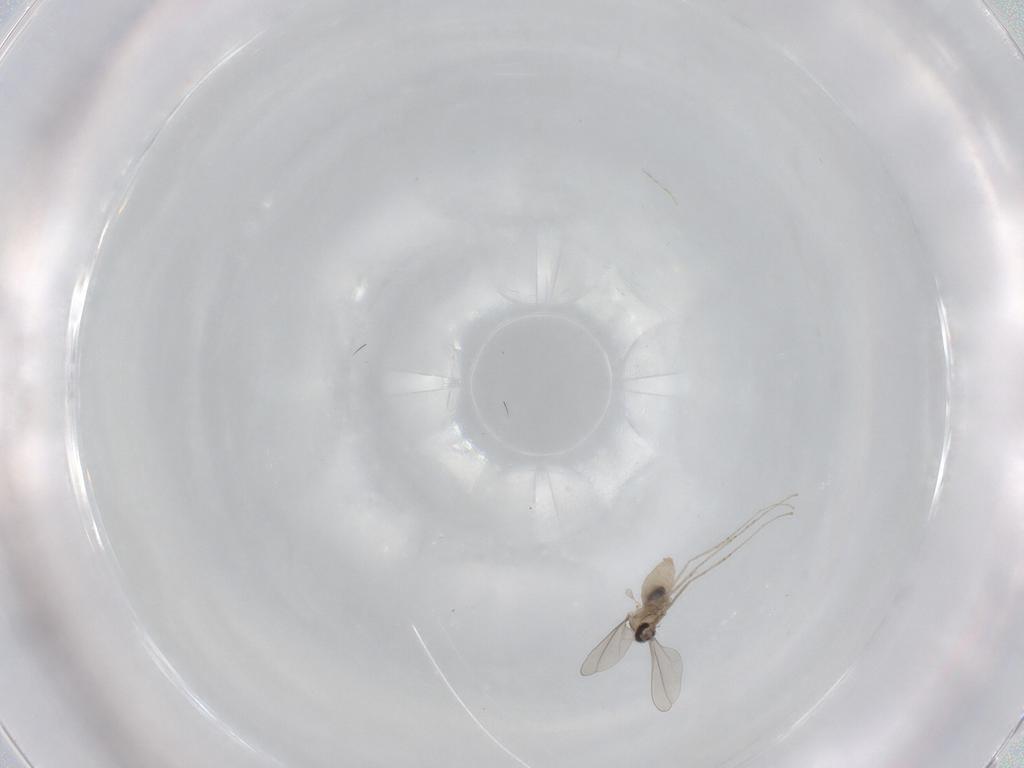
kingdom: Animalia
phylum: Arthropoda
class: Insecta
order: Diptera
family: Cecidomyiidae
